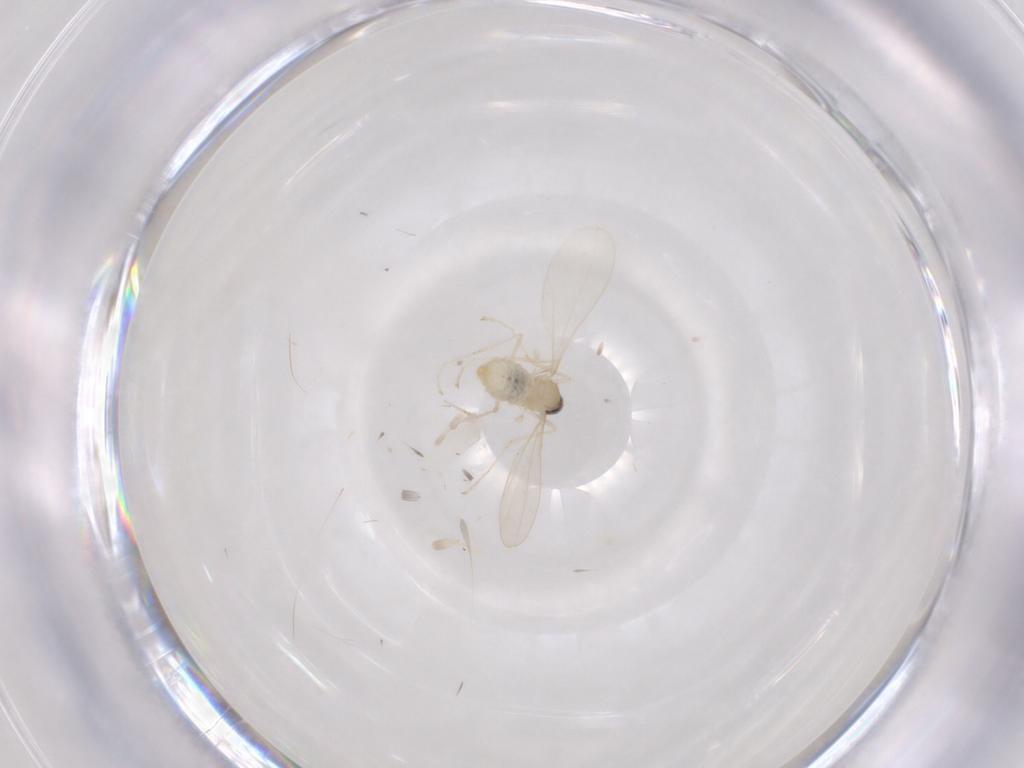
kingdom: Animalia
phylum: Arthropoda
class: Insecta
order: Diptera
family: Cecidomyiidae
